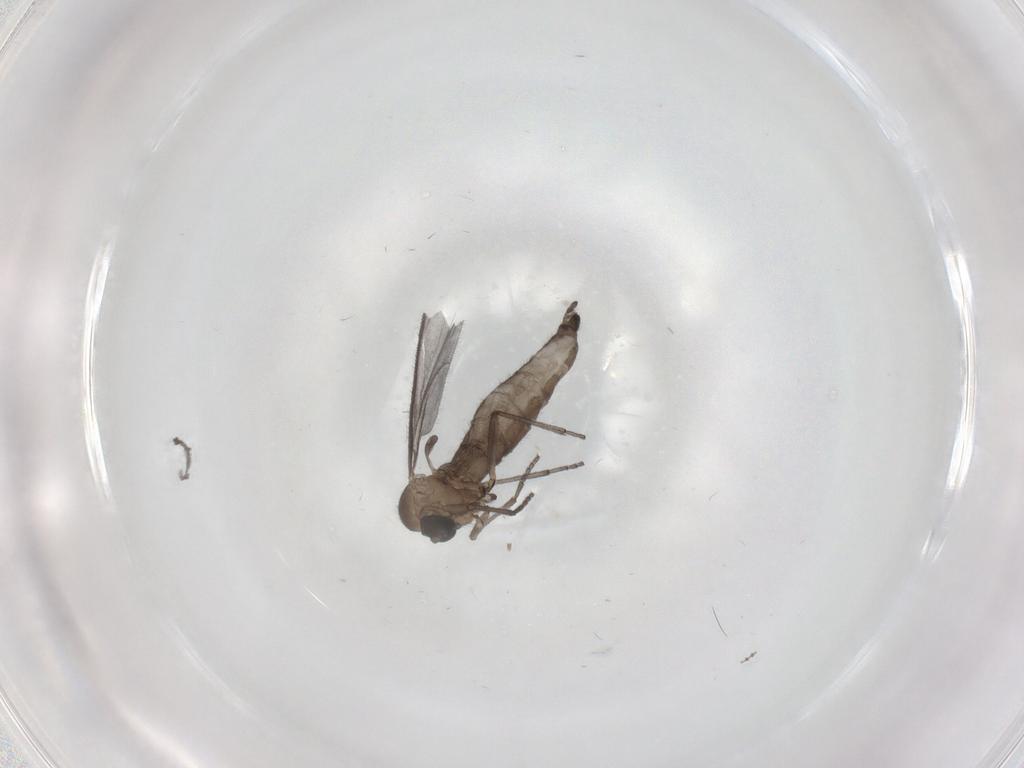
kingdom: Animalia
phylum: Arthropoda
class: Insecta
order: Diptera
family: Sciaridae
